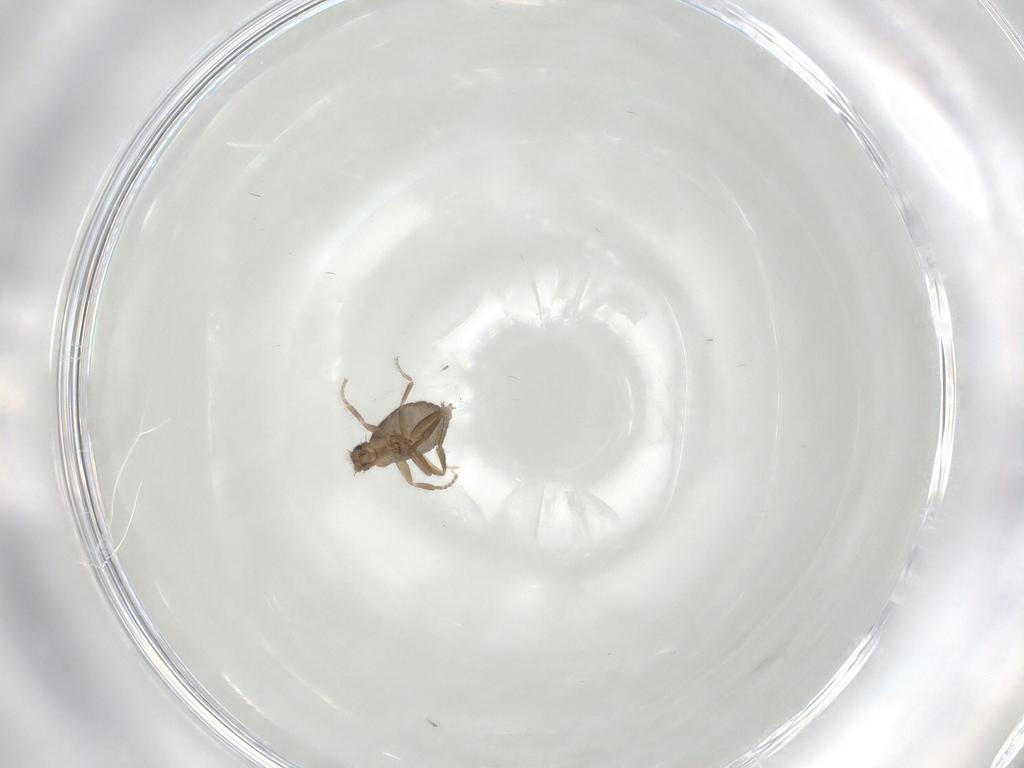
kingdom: Animalia
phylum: Arthropoda
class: Insecta
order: Diptera
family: Phoridae
